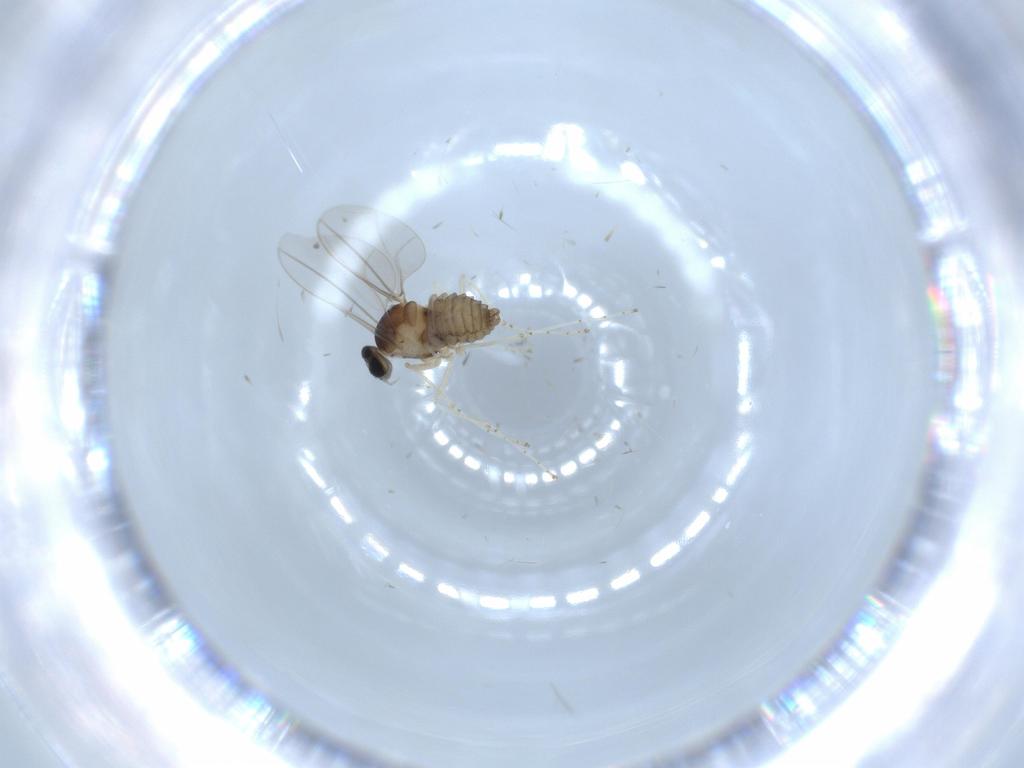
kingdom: Animalia
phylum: Arthropoda
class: Insecta
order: Diptera
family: Cecidomyiidae
